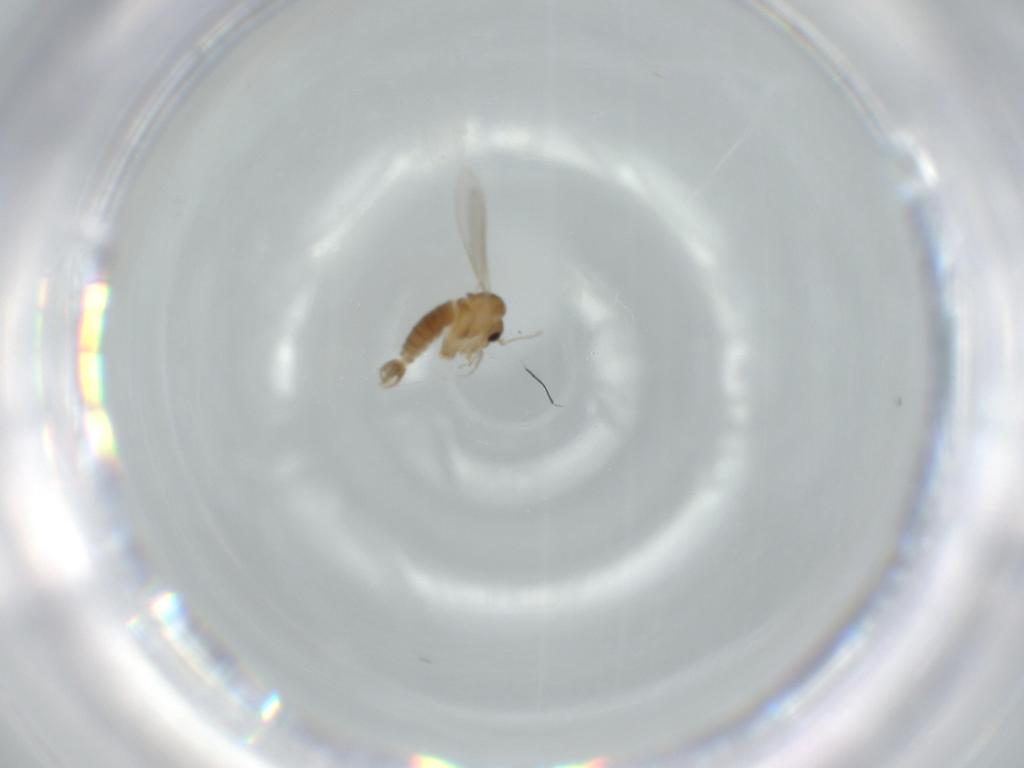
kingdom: Animalia
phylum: Arthropoda
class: Insecta
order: Diptera
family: Psychodidae
